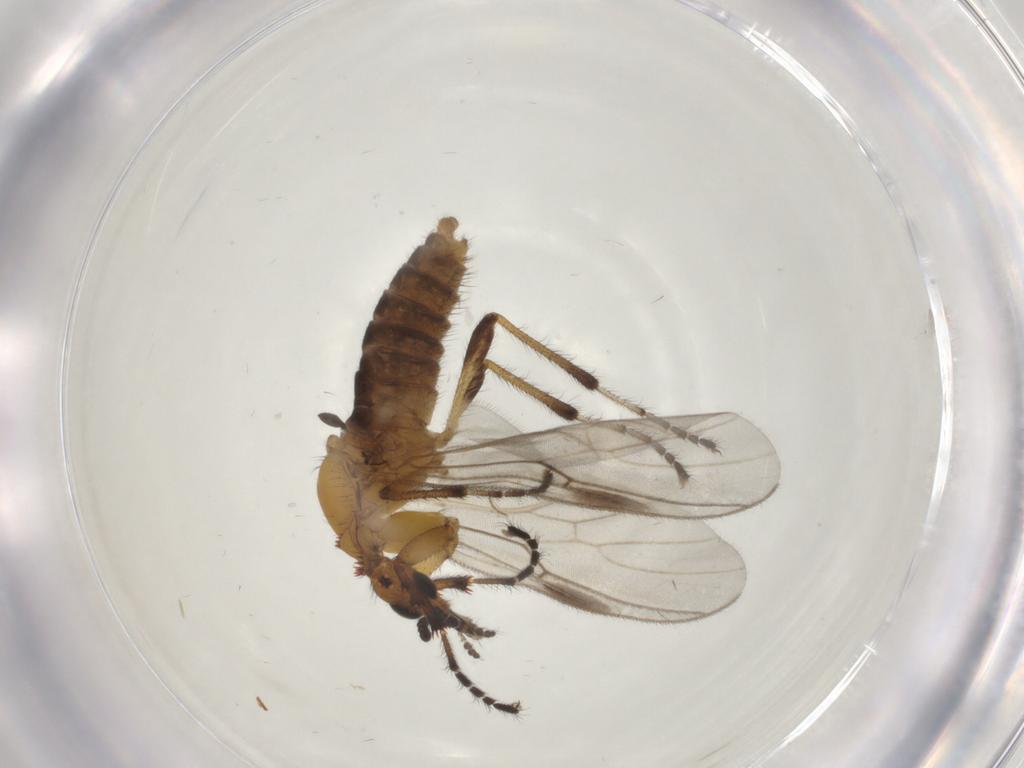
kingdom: Animalia
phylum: Arthropoda
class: Insecta
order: Diptera
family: Bibionidae
